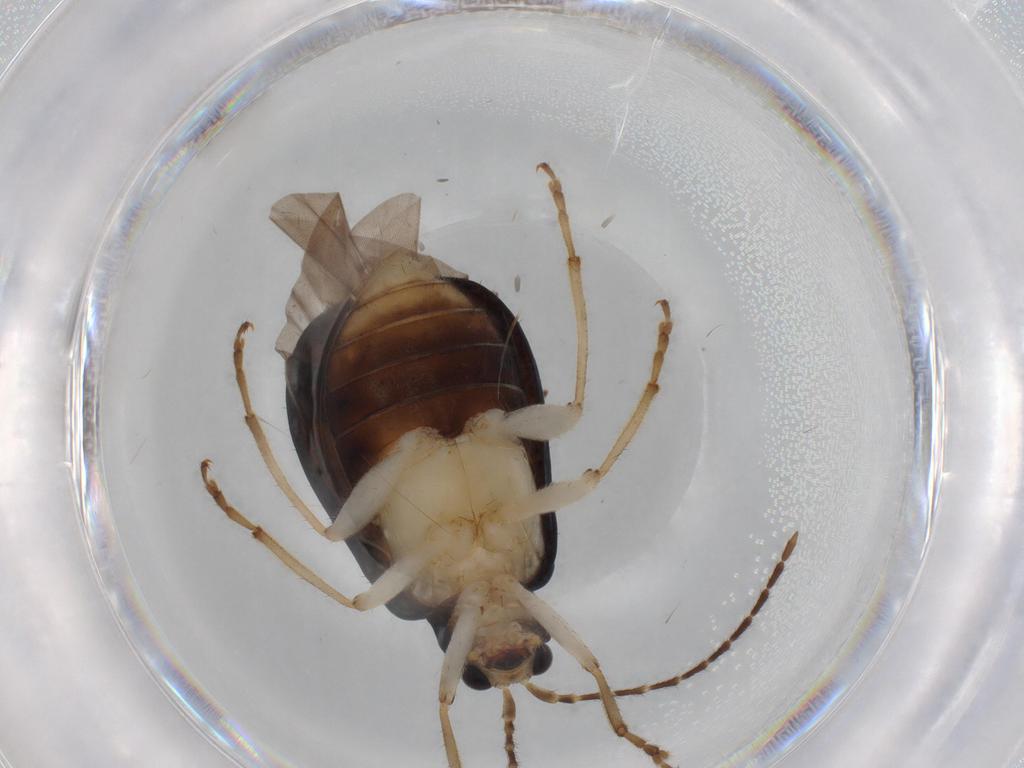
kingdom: Animalia
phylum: Arthropoda
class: Insecta
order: Coleoptera
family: Chrysomelidae
